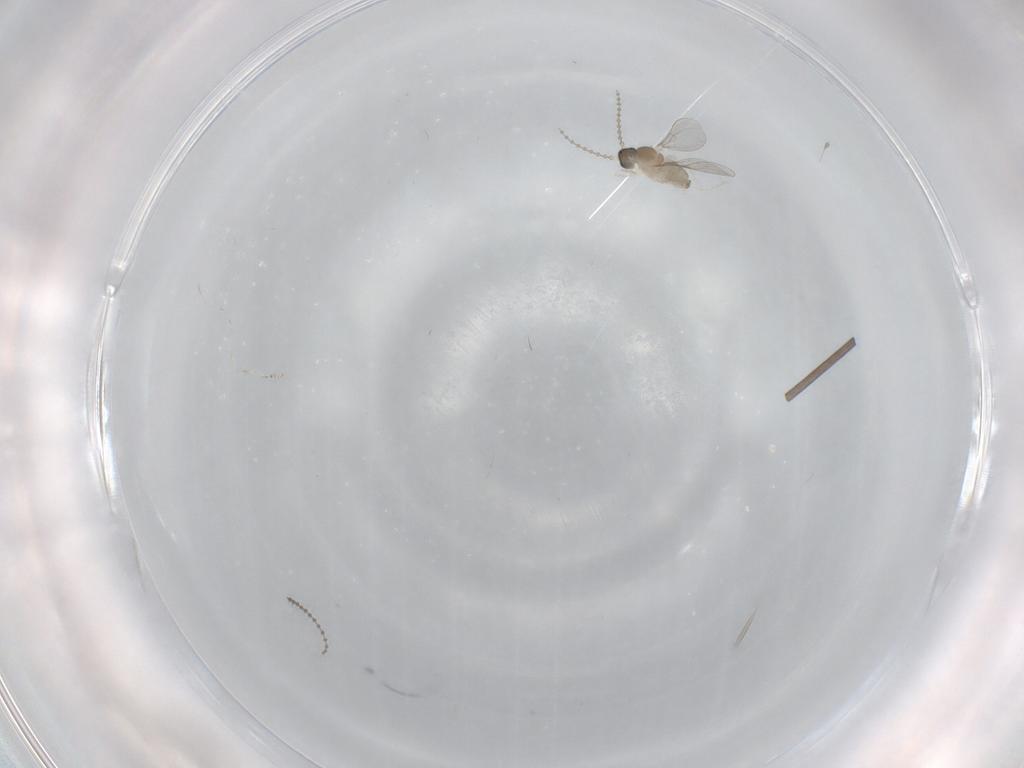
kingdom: Animalia
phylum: Arthropoda
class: Insecta
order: Diptera
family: Cecidomyiidae
